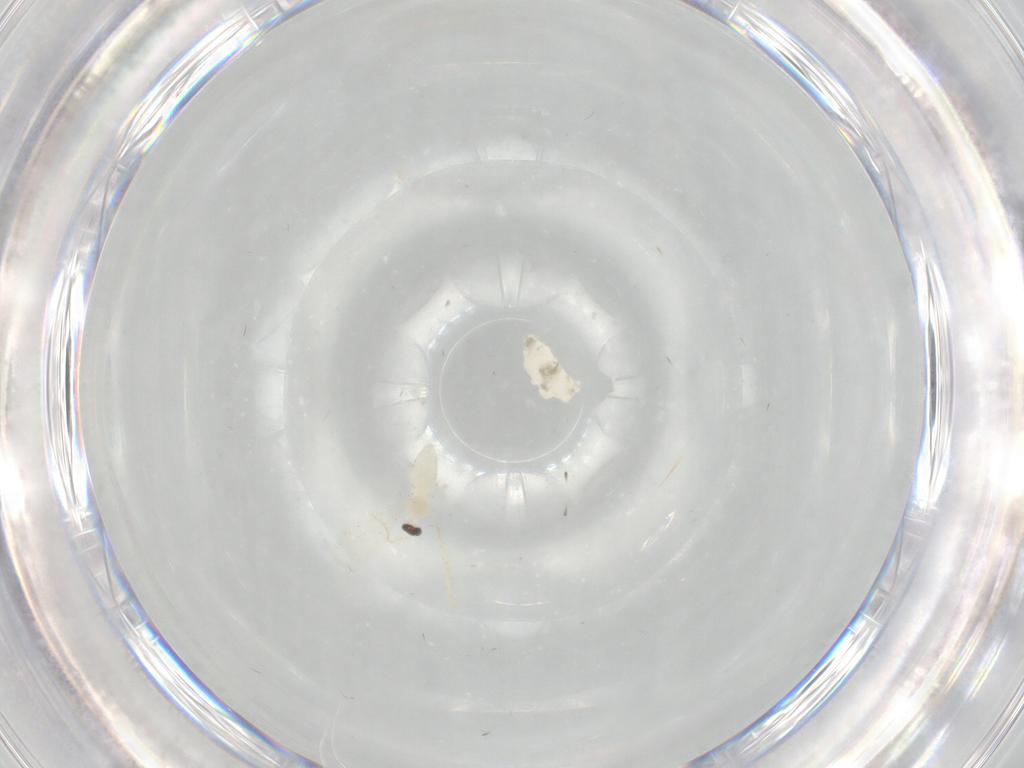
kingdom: Animalia
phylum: Arthropoda
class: Insecta
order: Diptera
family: Cecidomyiidae
